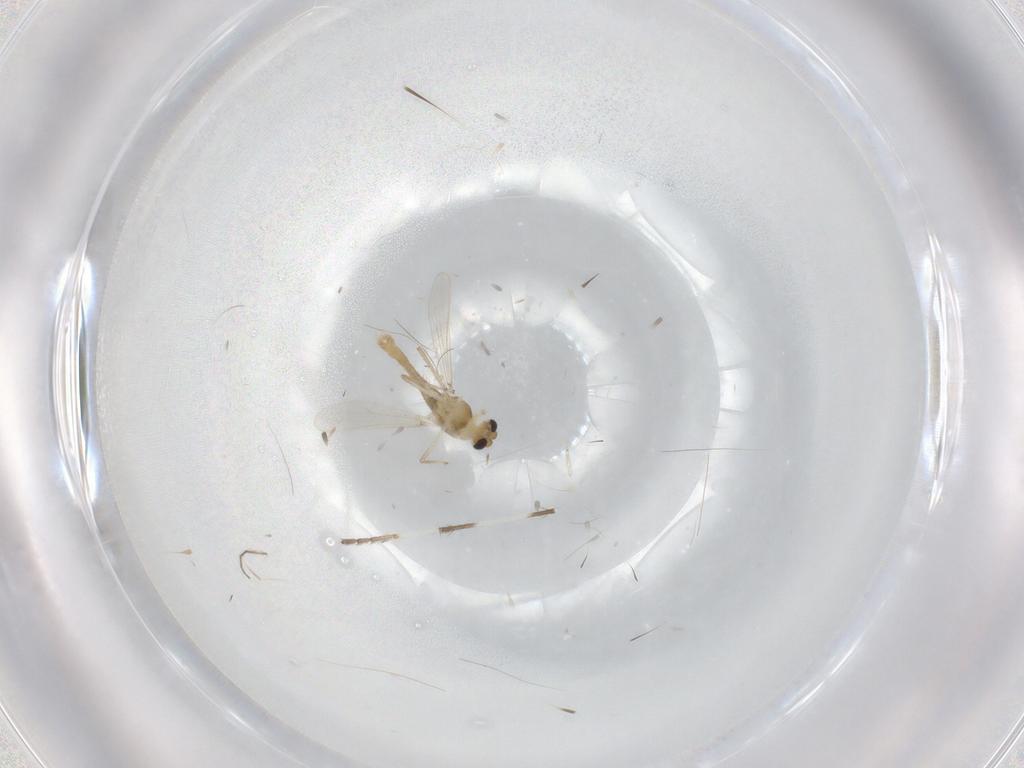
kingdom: Animalia
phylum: Arthropoda
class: Insecta
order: Diptera
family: Chironomidae
